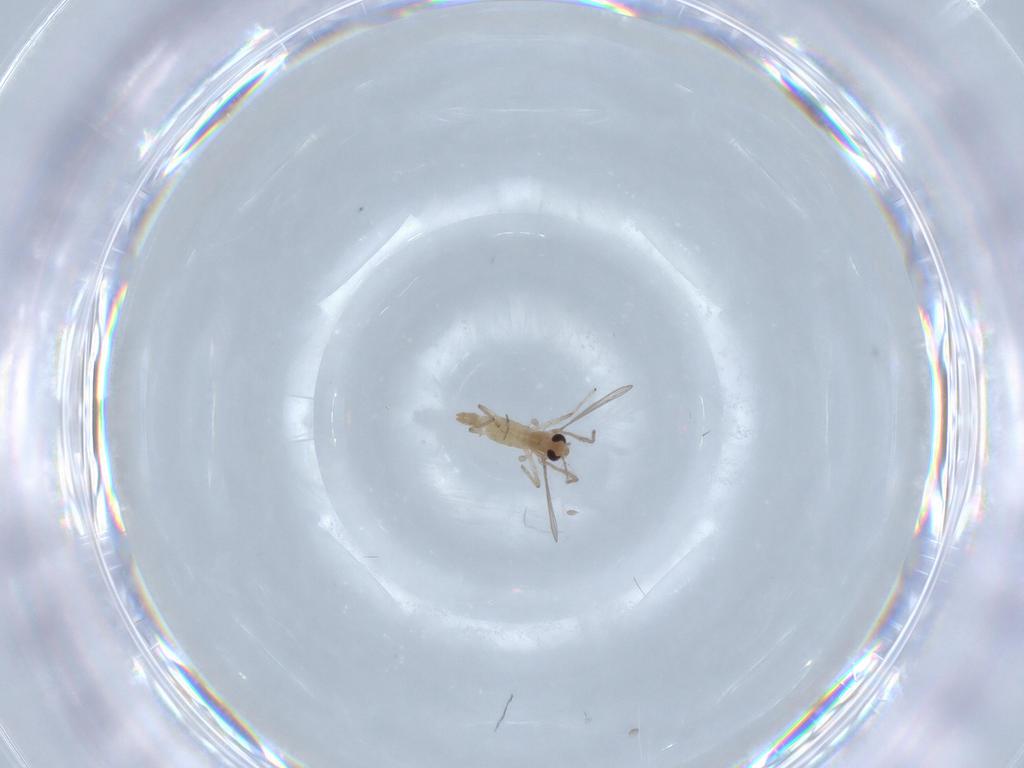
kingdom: Animalia
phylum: Arthropoda
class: Insecta
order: Diptera
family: Chironomidae
